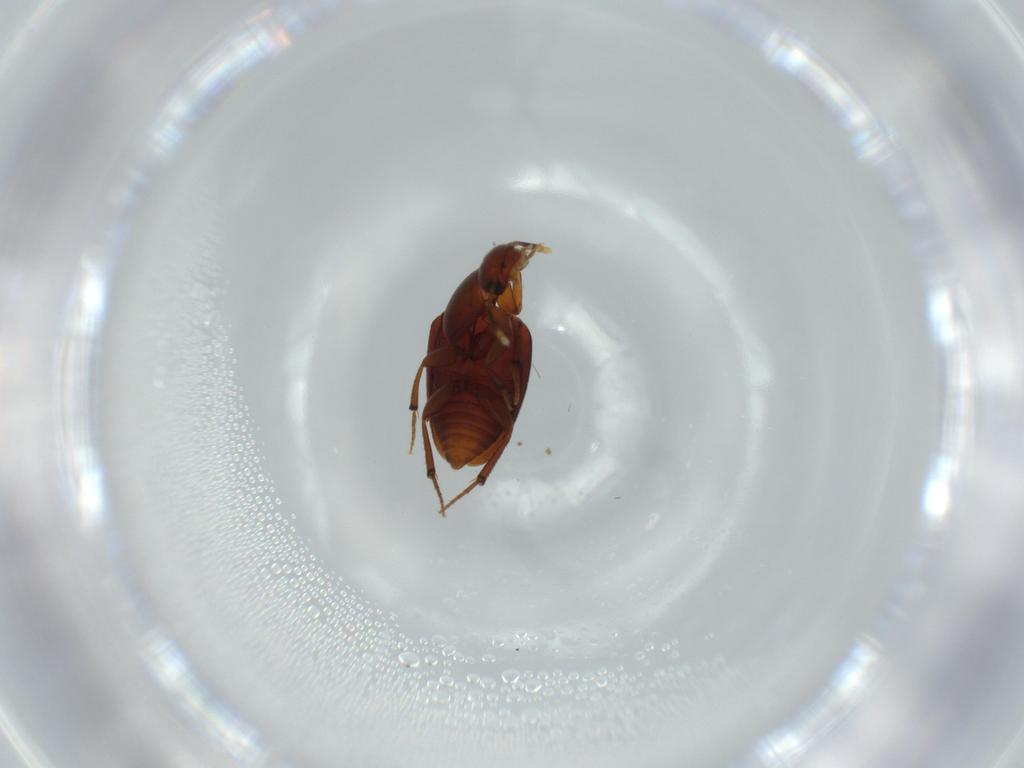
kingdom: Animalia
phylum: Arthropoda
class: Insecta
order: Coleoptera
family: Leiodidae
